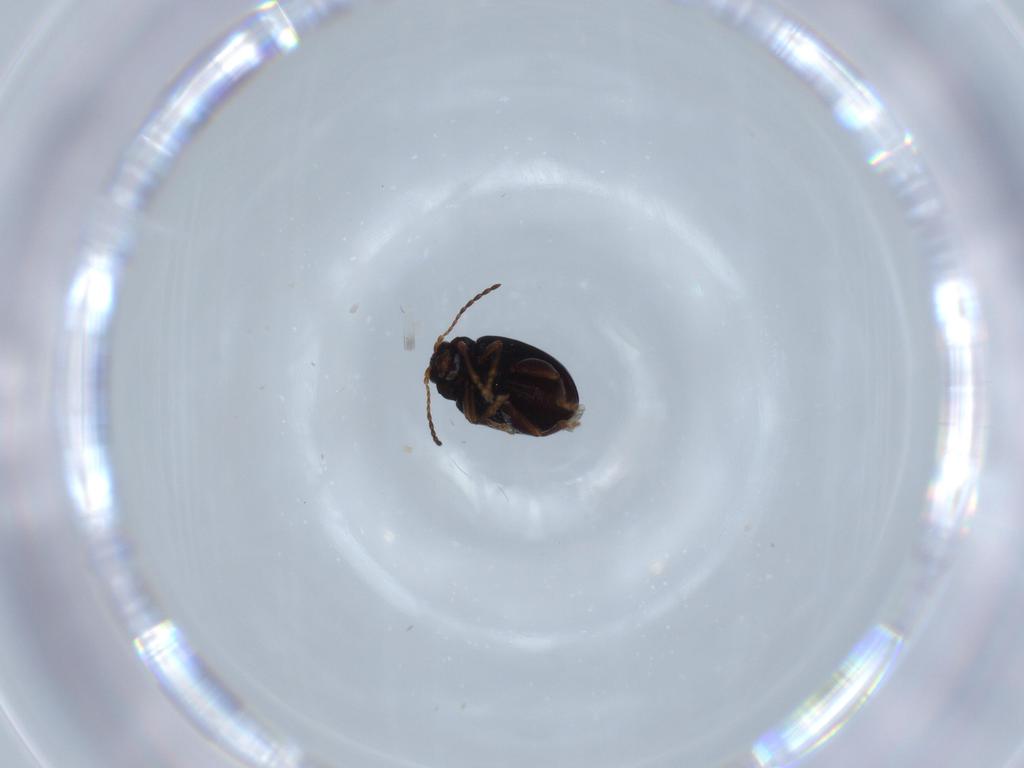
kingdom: Animalia
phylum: Arthropoda
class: Insecta
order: Coleoptera
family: Chrysomelidae
